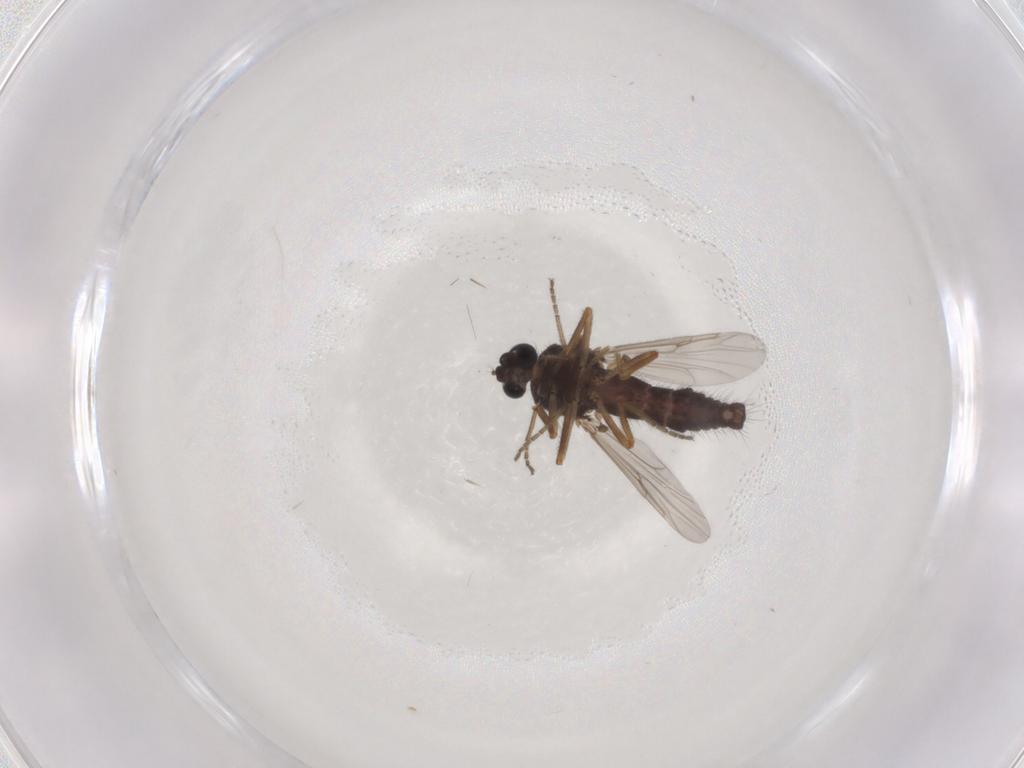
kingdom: Animalia
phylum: Arthropoda
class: Insecta
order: Diptera
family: Ceratopogonidae
